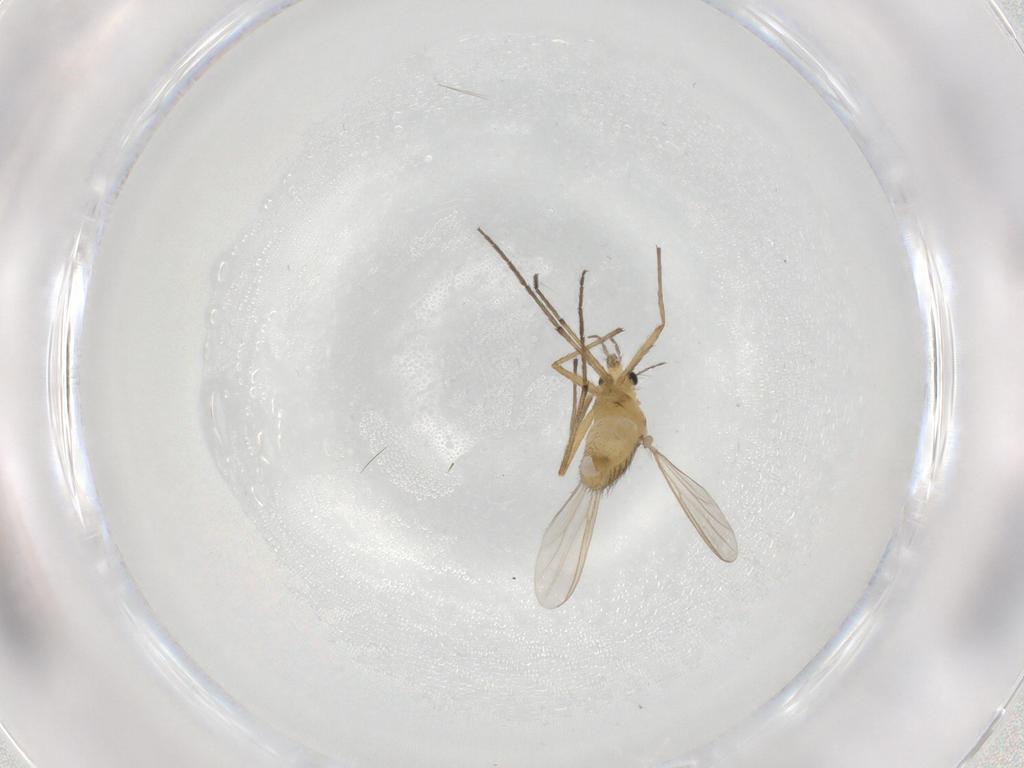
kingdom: Animalia
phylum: Arthropoda
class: Insecta
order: Diptera
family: Chironomidae
